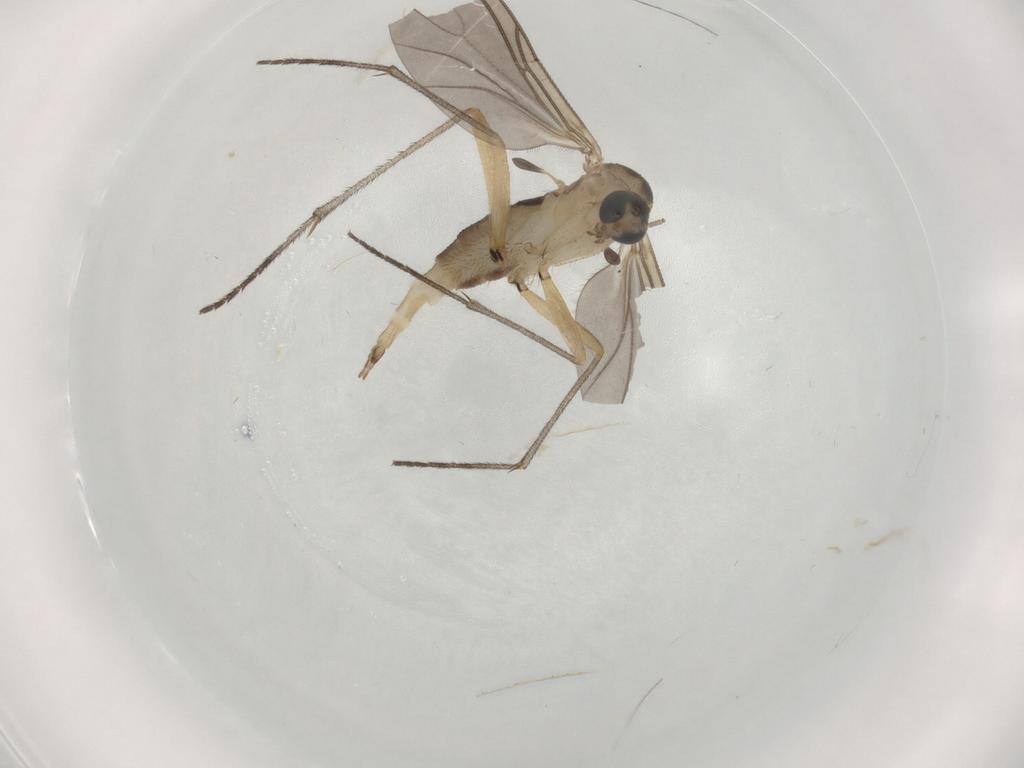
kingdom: Animalia
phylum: Arthropoda
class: Insecta
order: Diptera
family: Sciaridae
